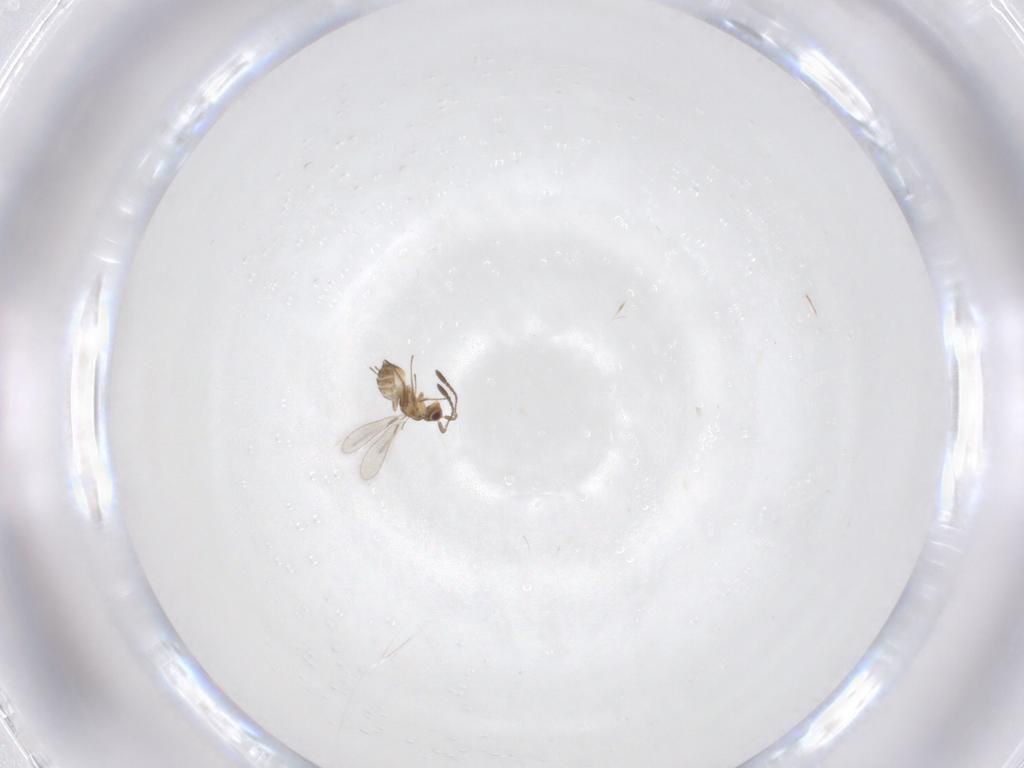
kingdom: Animalia
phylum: Arthropoda
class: Insecta
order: Hymenoptera
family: Mymaridae
